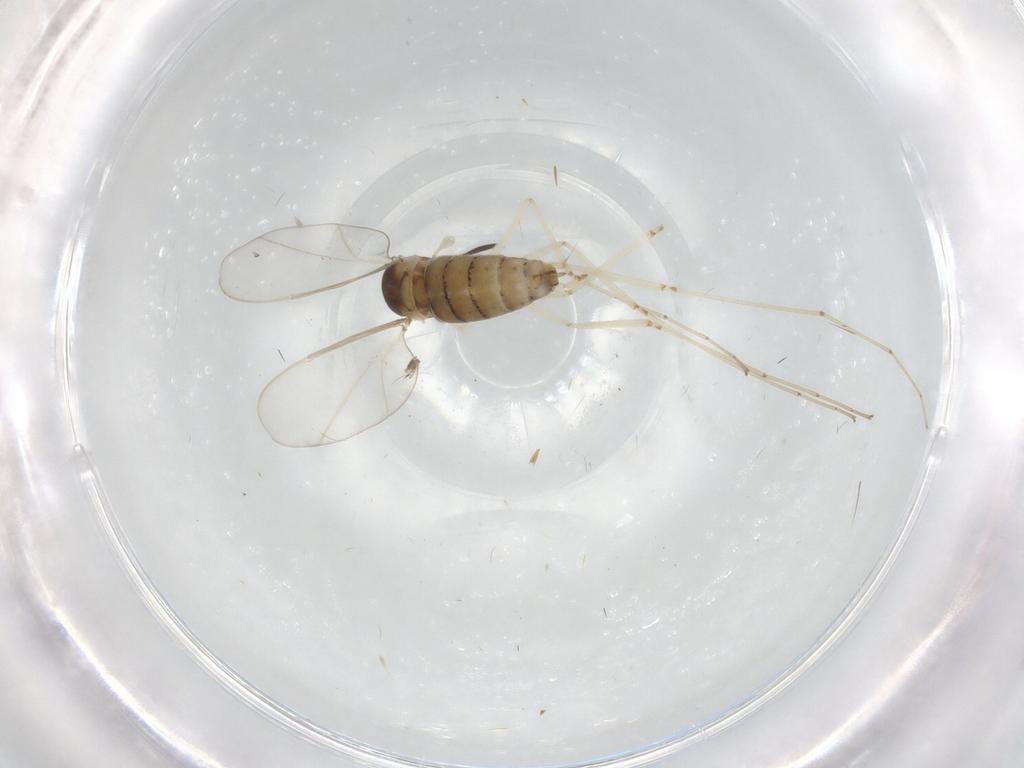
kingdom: Animalia
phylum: Arthropoda
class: Insecta
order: Diptera
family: Cecidomyiidae
